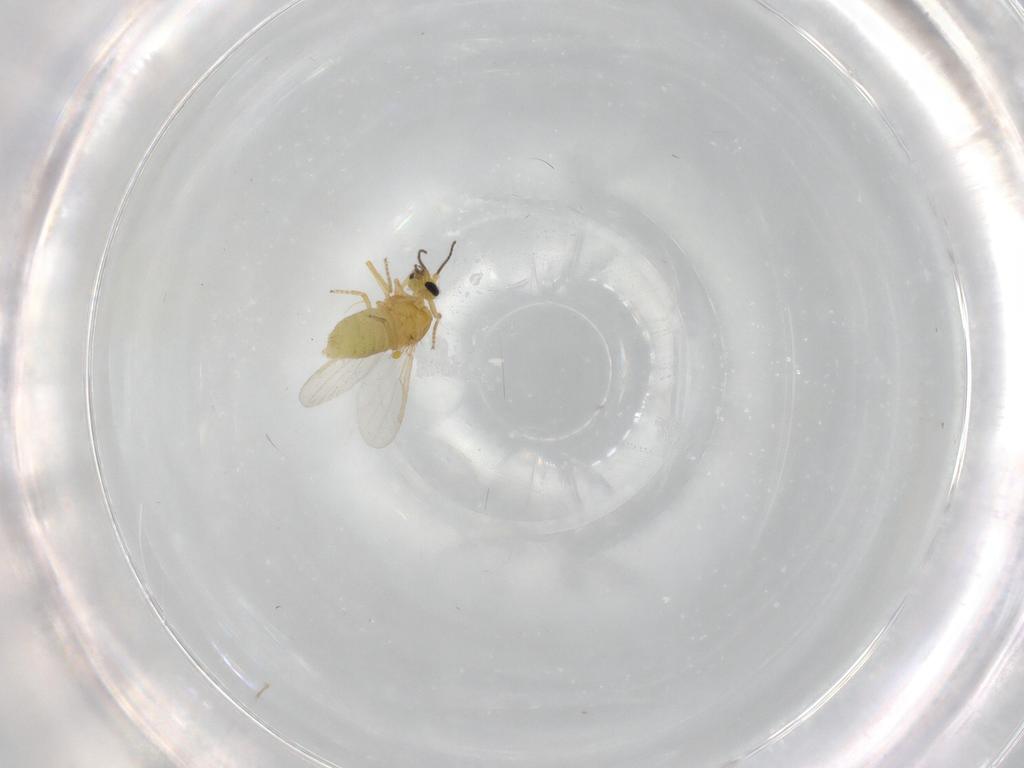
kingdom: Animalia
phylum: Arthropoda
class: Insecta
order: Diptera
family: Ceratopogonidae
